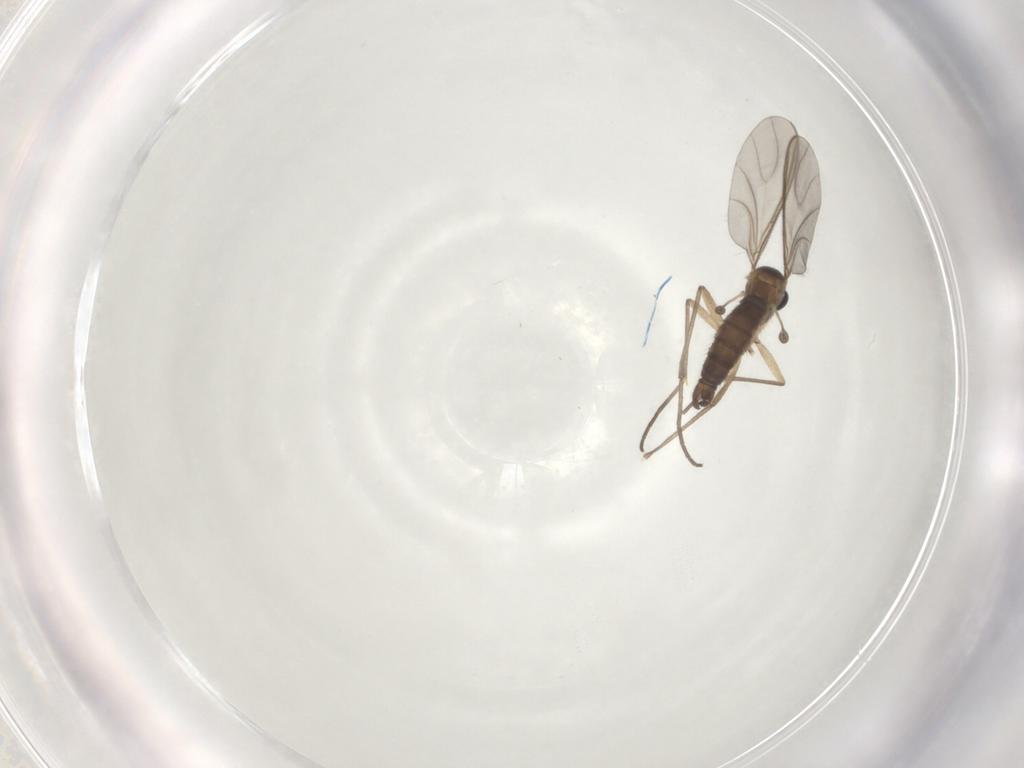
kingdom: Animalia
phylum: Arthropoda
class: Insecta
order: Diptera
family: Sciaridae
